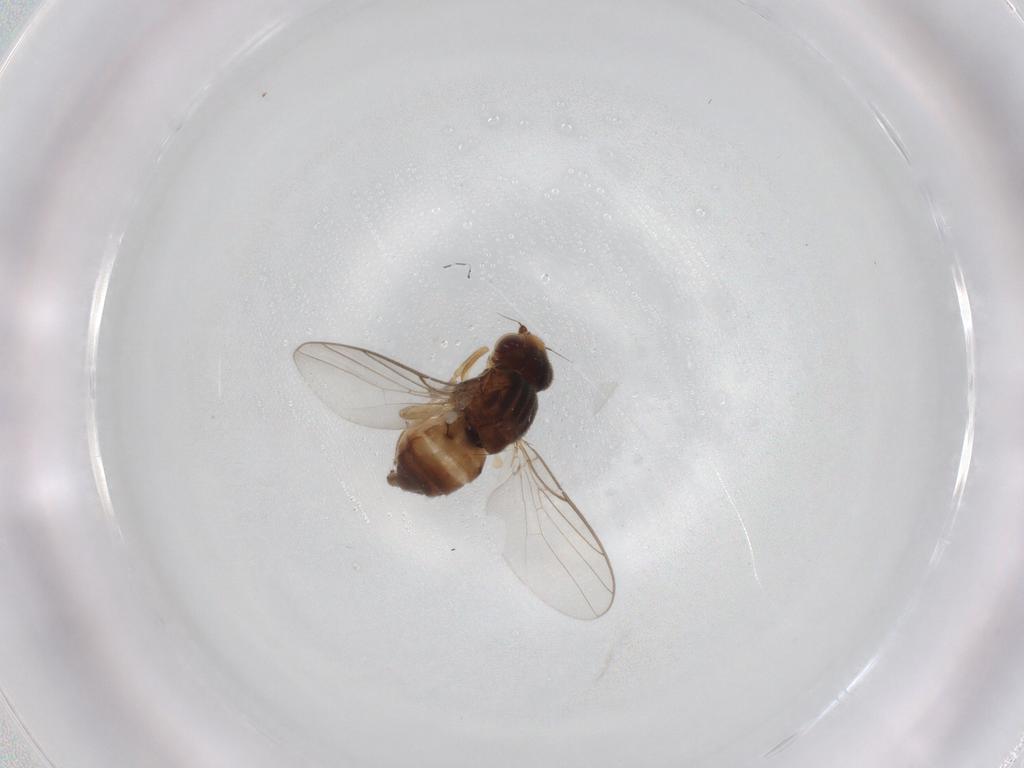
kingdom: Animalia
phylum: Arthropoda
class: Insecta
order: Diptera
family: Chloropidae
